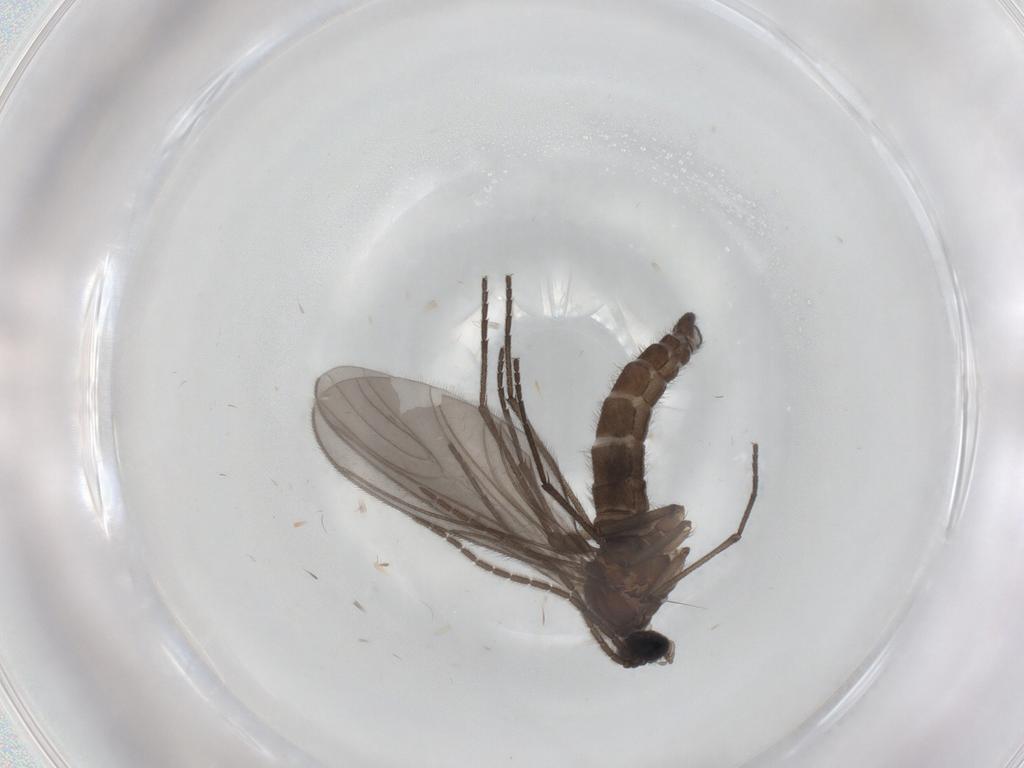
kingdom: Animalia
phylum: Arthropoda
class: Insecta
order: Diptera
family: Sciaridae
